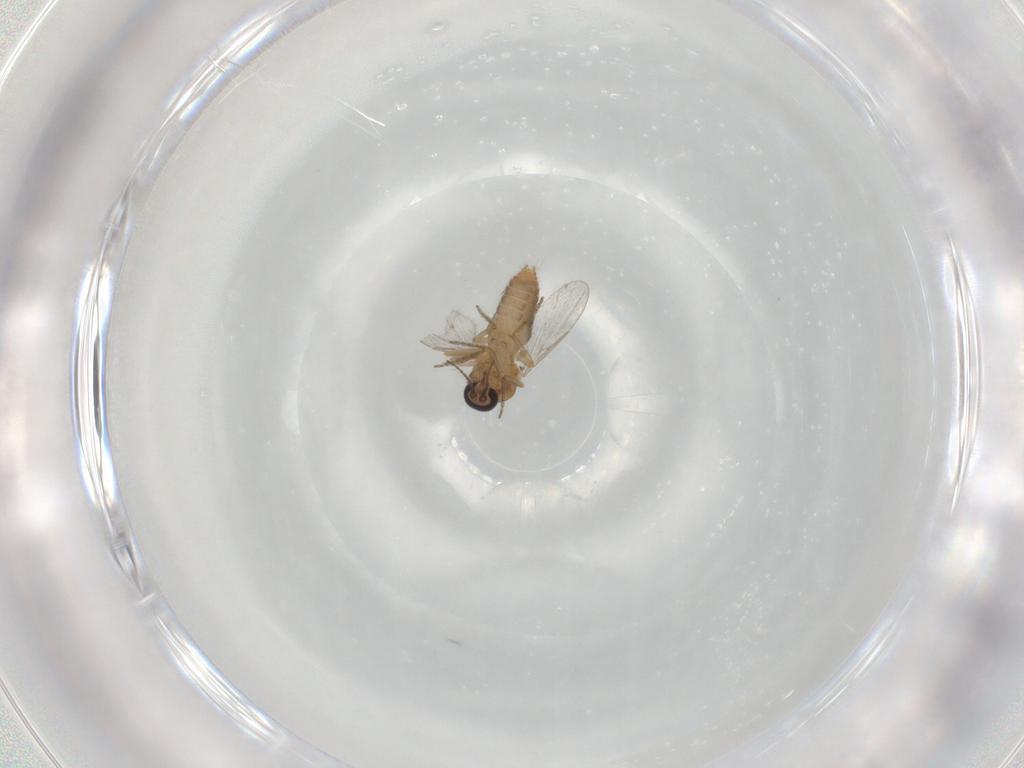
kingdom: Animalia
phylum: Arthropoda
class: Insecta
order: Diptera
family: Ceratopogonidae
